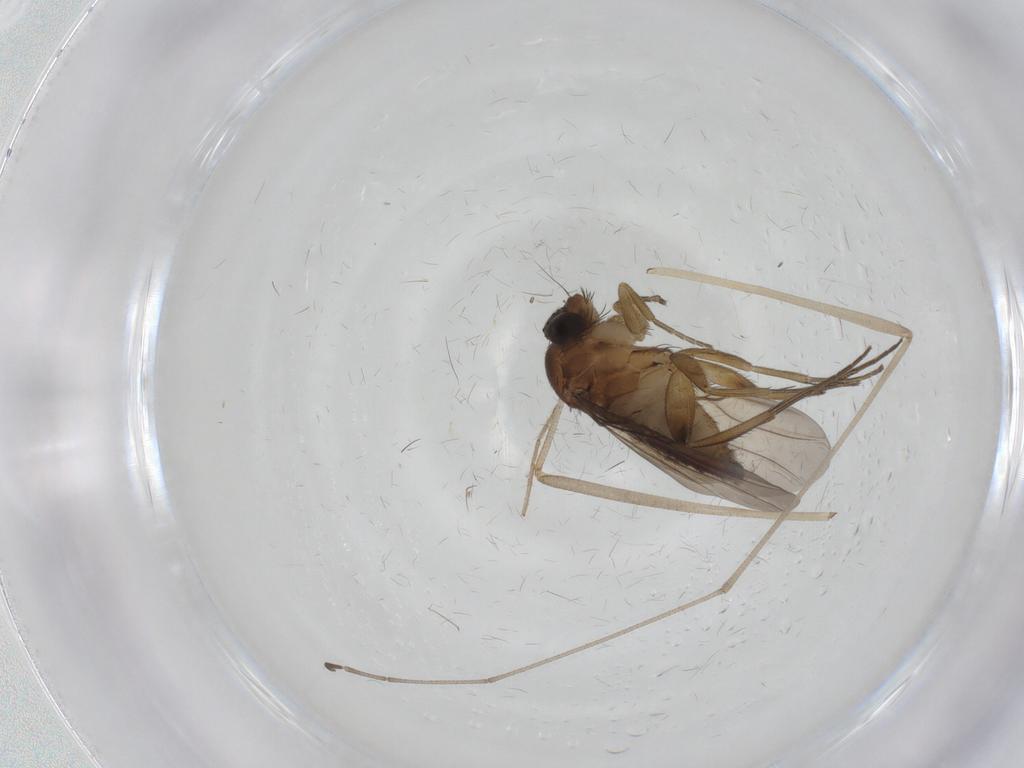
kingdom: Animalia
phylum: Arthropoda
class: Insecta
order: Diptera
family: Phoridae
